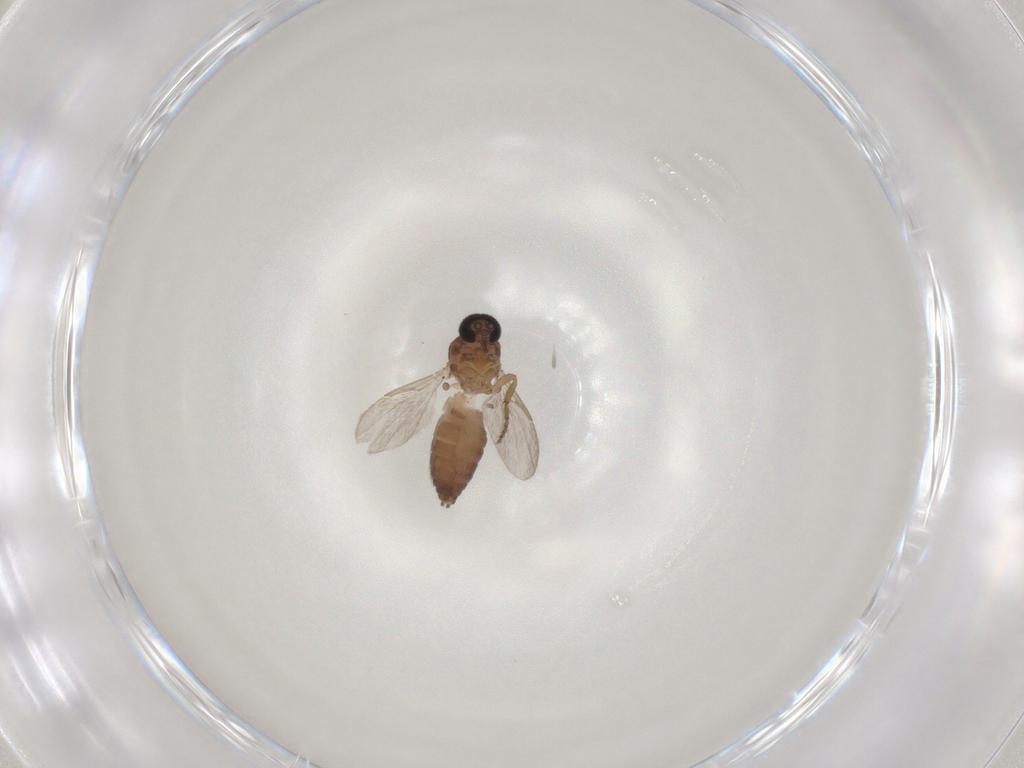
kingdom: Animalia
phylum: Arthropoda
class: Insecta
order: Diptera
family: Ceratopogonidae
